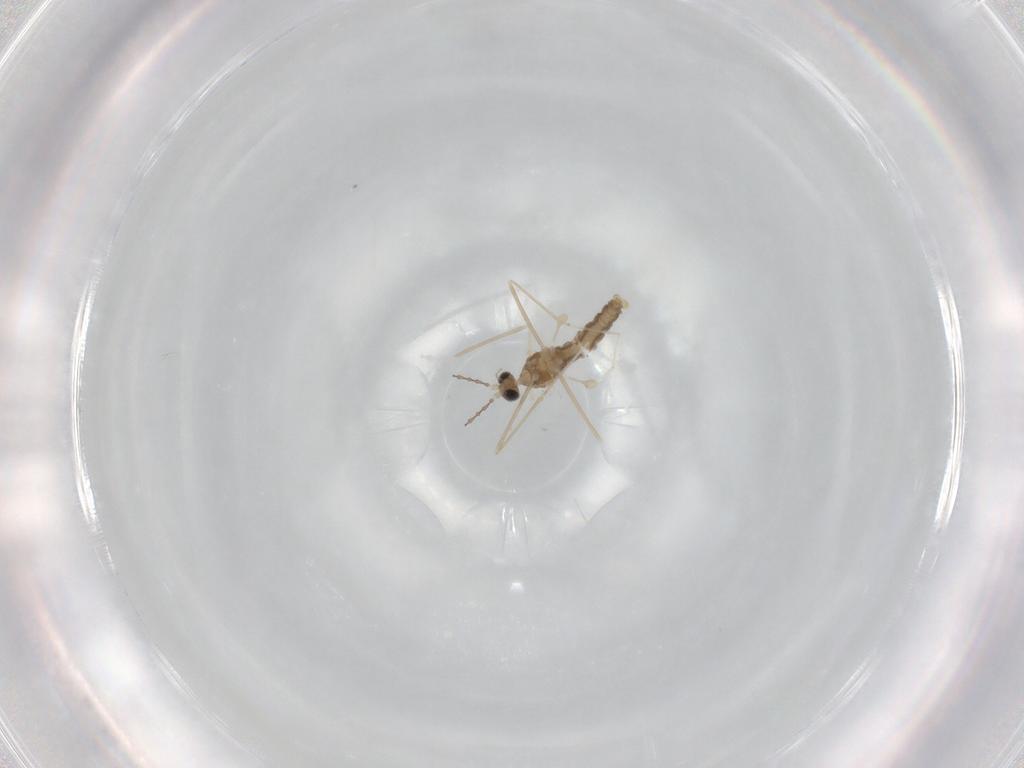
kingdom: Animalia
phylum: Arthropoda
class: Insecta
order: Diptera
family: Cecidomyiidae
